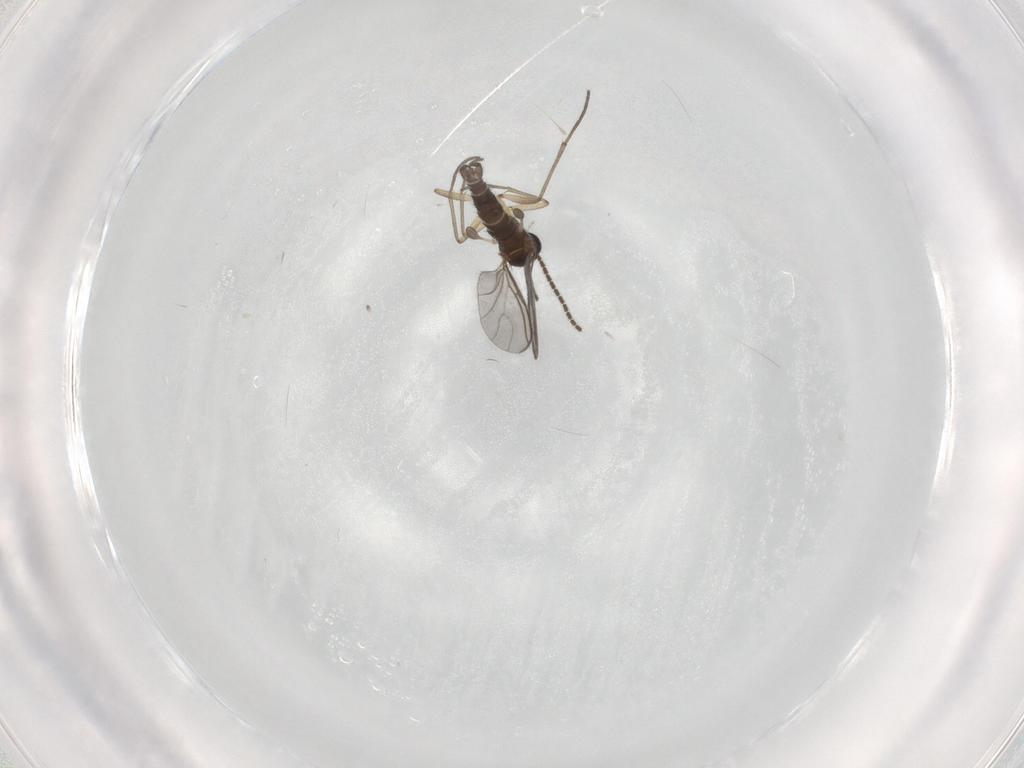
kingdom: Animalia
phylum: Arthropoda
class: Insecta
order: Diptera
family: Sciaridae
